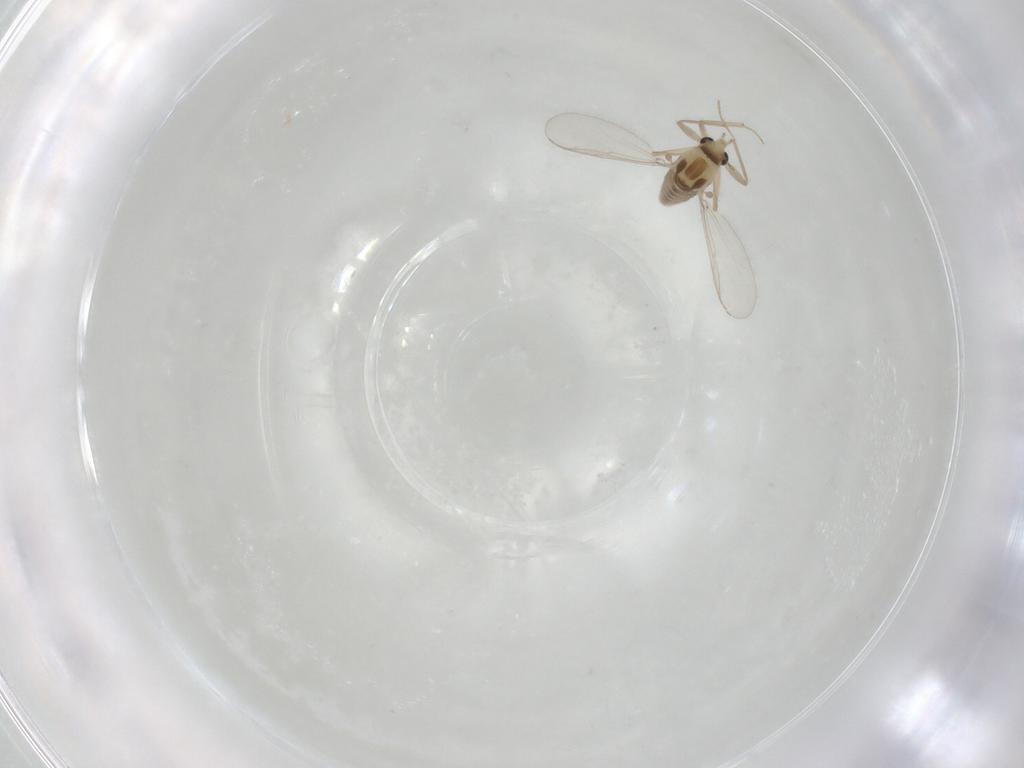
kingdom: Animalia
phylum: Arthropoda
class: Insecta
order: Diptera
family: Chironomidae
